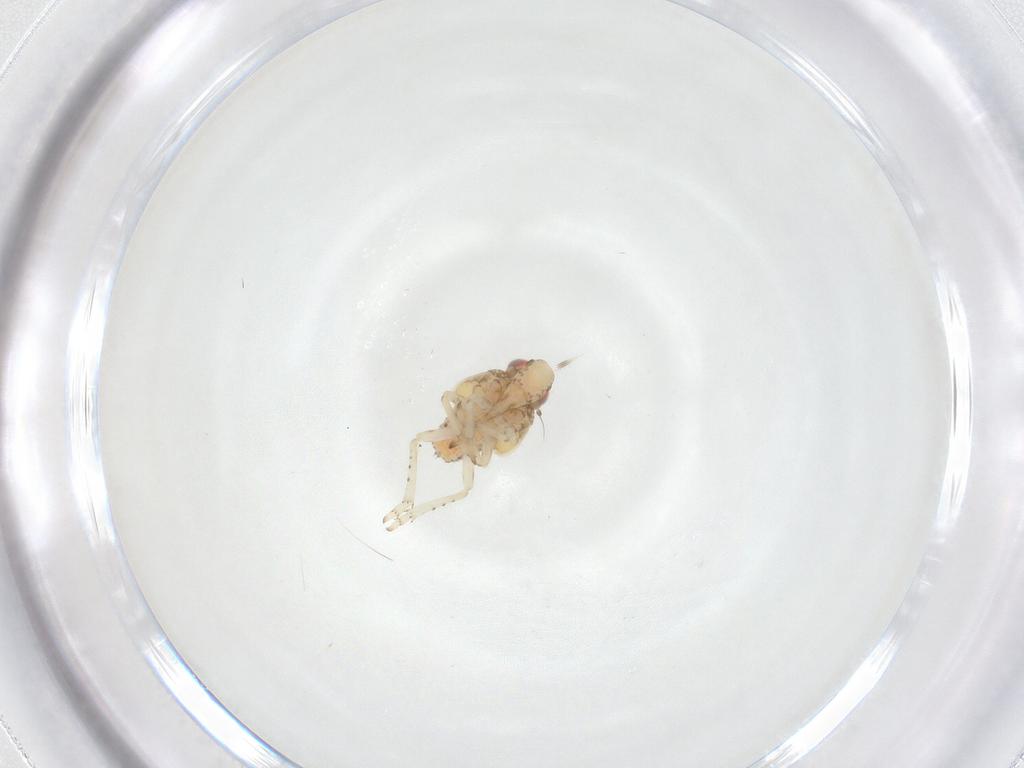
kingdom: Animalia
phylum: Arthropoda
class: Insecta
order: Hemiptera
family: Tropiduchidae
